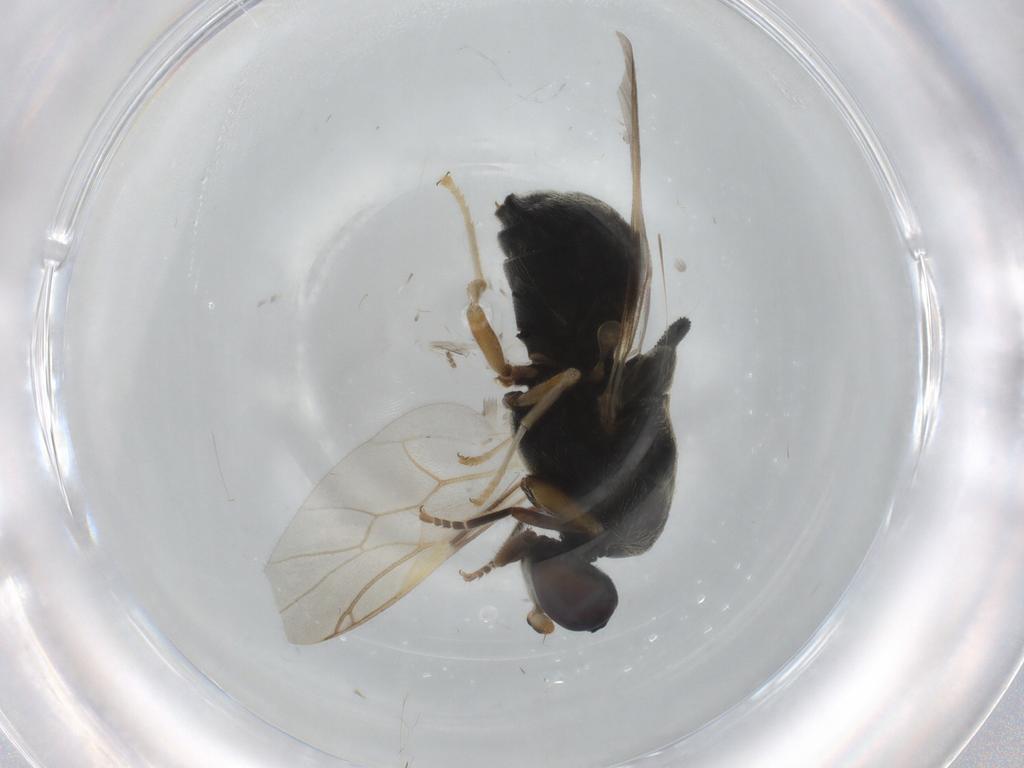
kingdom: Animalia
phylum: Arthropoda
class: Insecta
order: Diptera
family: Stratiomyidae
